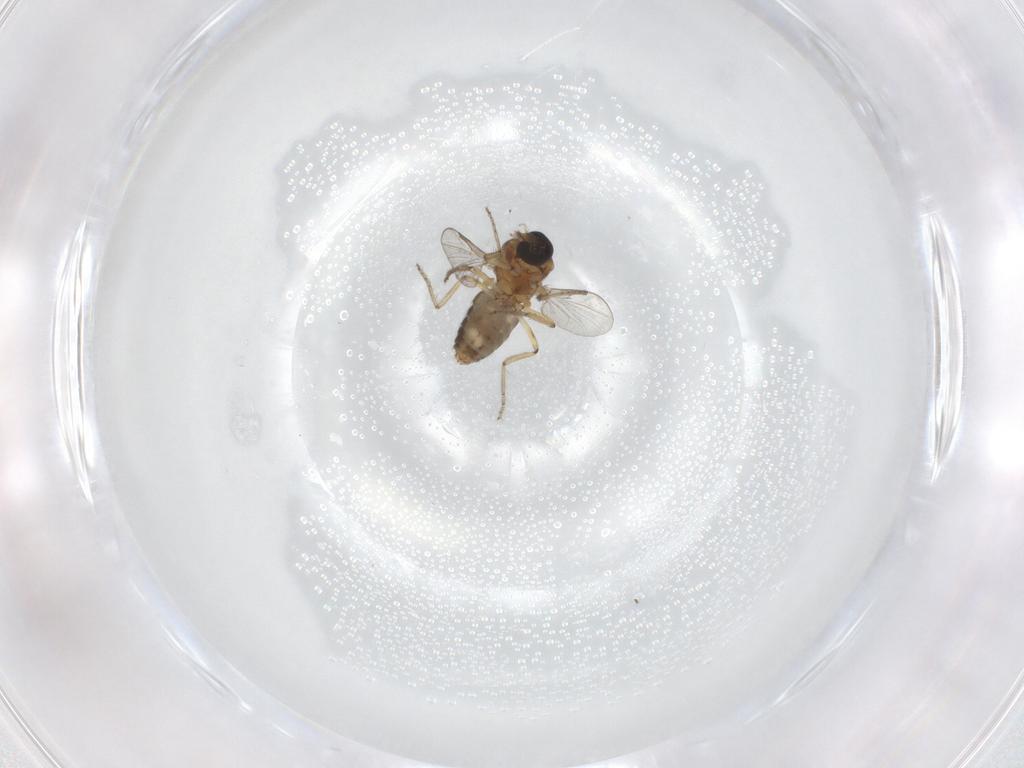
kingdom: Animalia
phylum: Arthropoda
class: Insecta
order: Diptera
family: Ceratopogonidae
